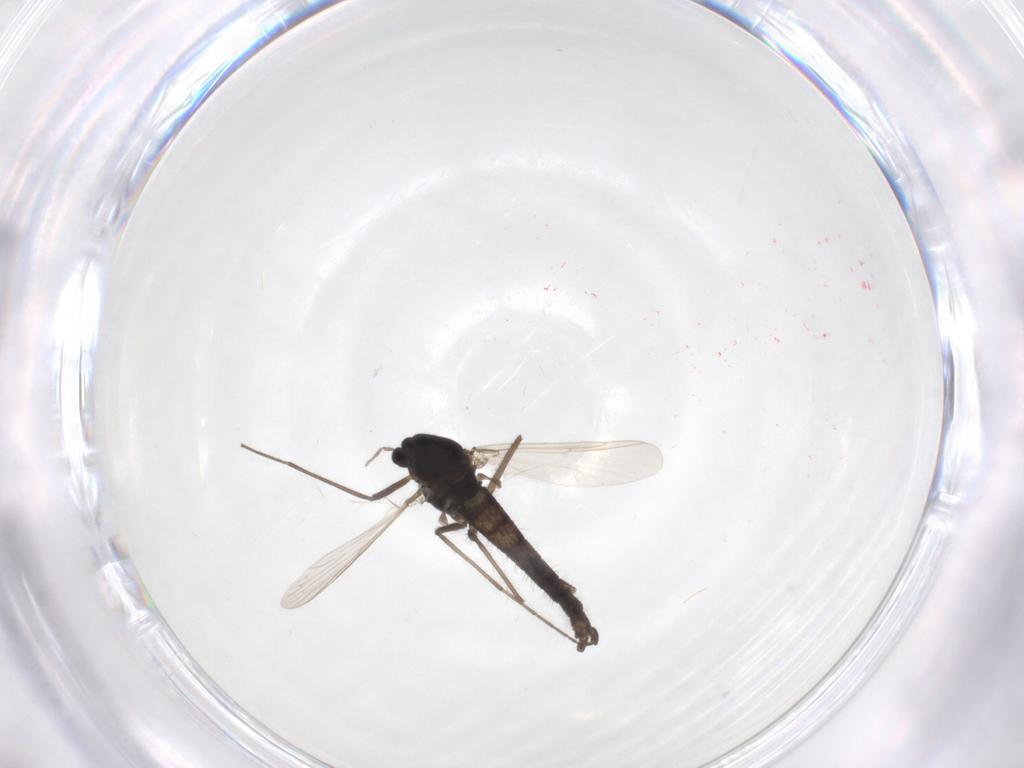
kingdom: Animalia
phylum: Arthropoda
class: Insecta
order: Diptera
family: Chironomidae
